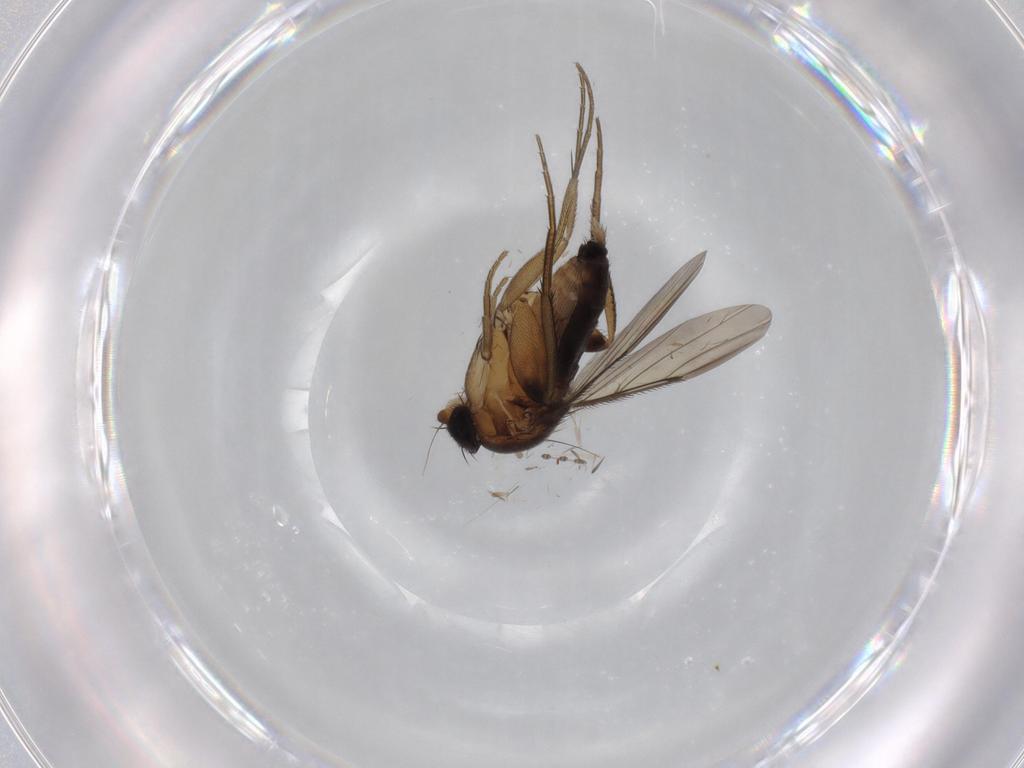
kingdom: Animalia
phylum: Arthropoda
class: Insecta
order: Diptera
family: Phoridae
